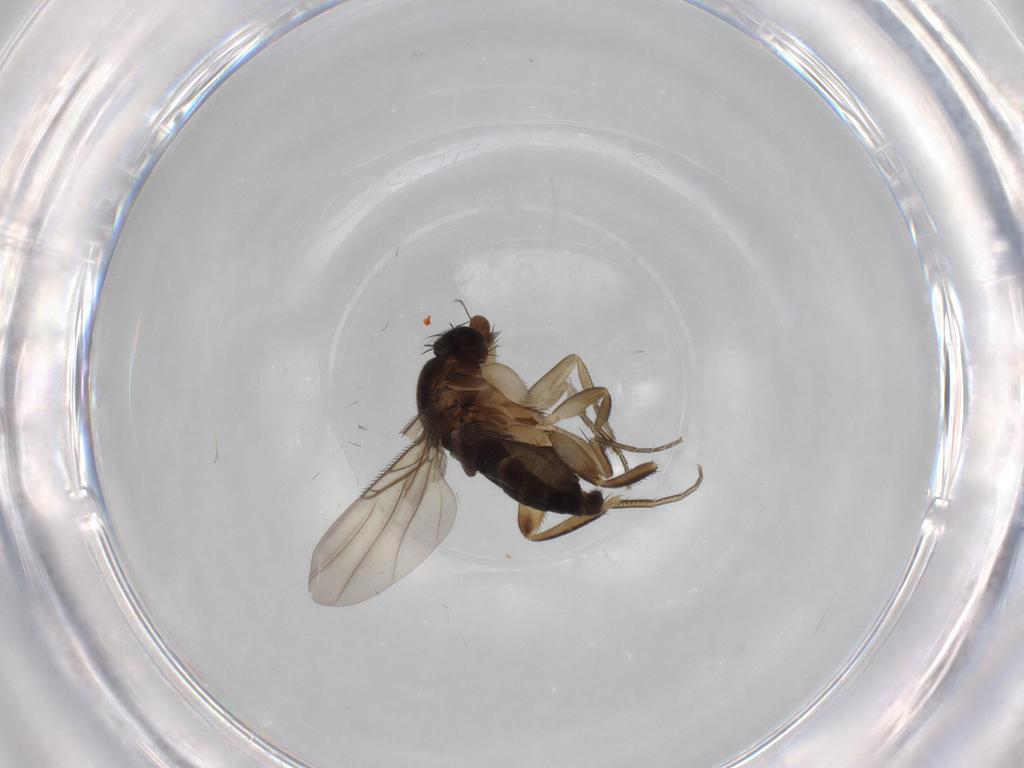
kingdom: Animalia
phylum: Arthropoda
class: Insecta
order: Diptera
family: Phoridae
